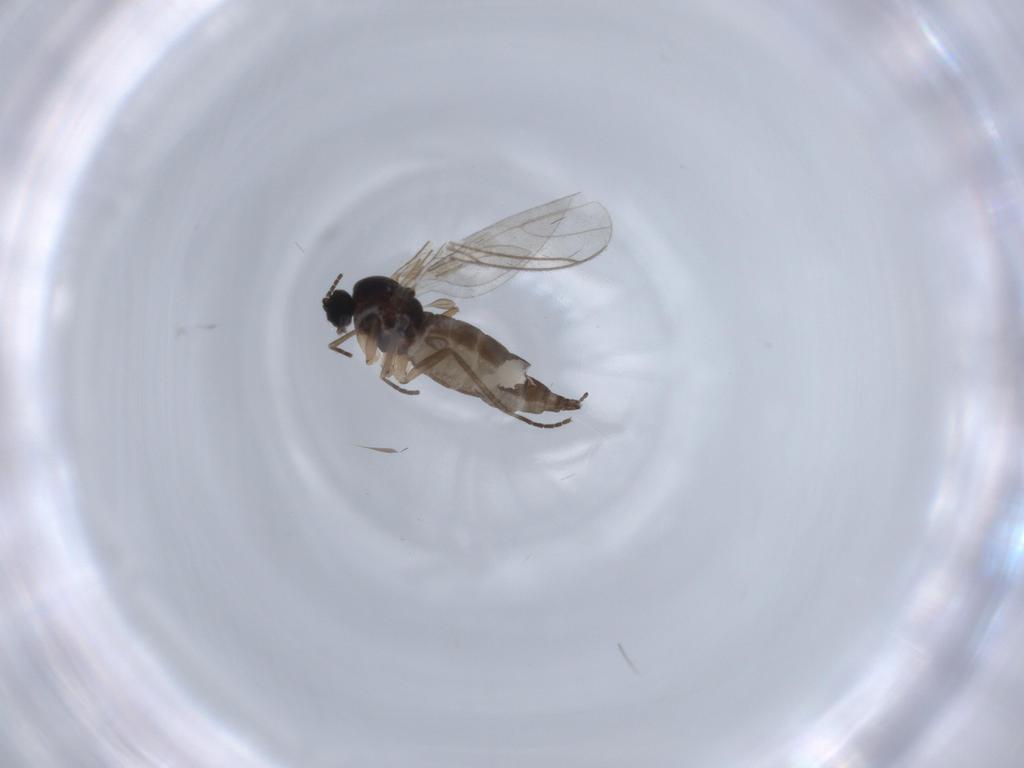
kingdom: Animalia
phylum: Arthropoda
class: Insecta
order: Diptera
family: Sciaridae
